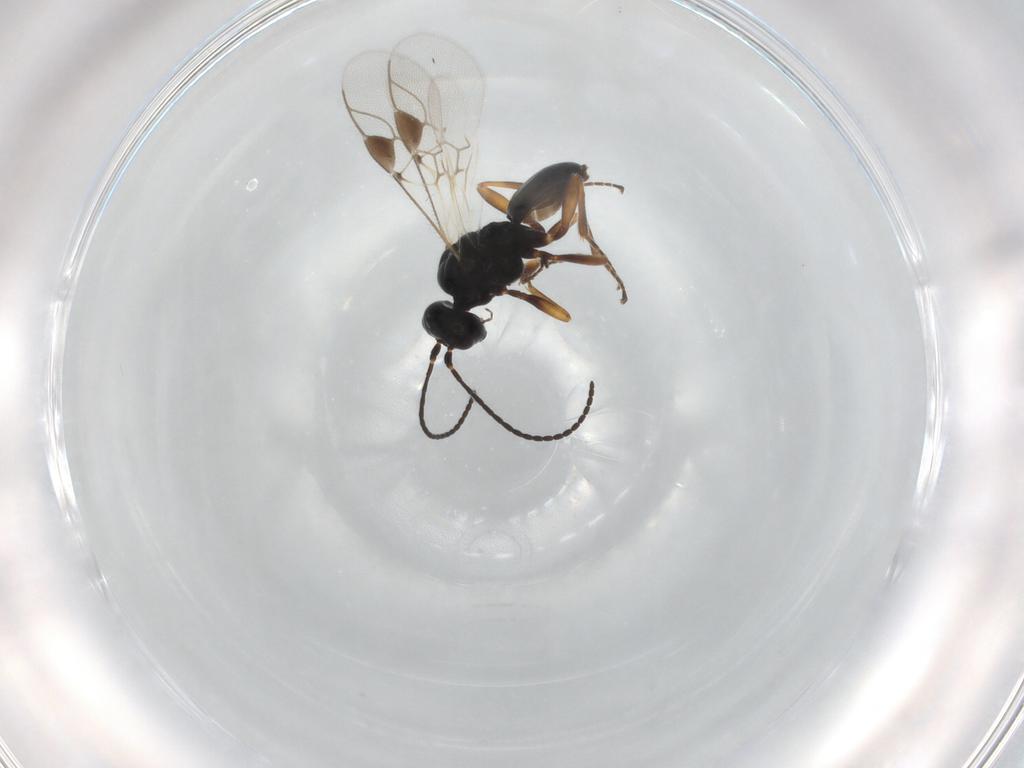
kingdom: Animalia
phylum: Arthropoda
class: Insecta
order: Hymenoptera
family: Braconidae
